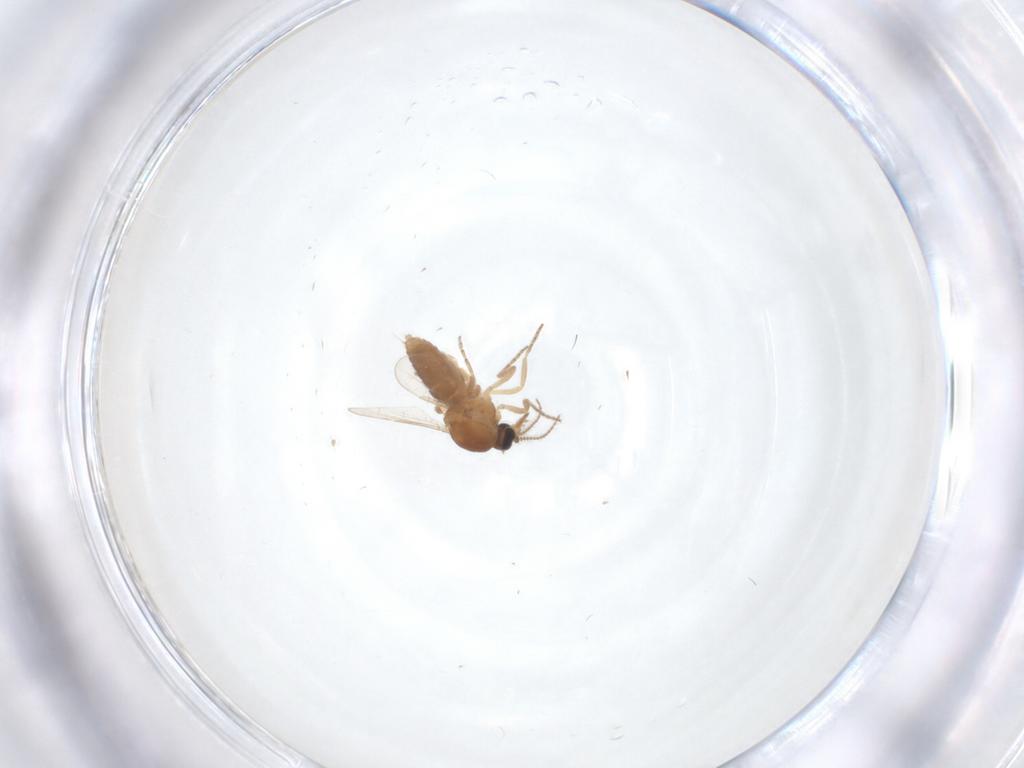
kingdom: Animalia
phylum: Arthropoda
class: Insecta
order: Diptera
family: Ceratopogonidae
